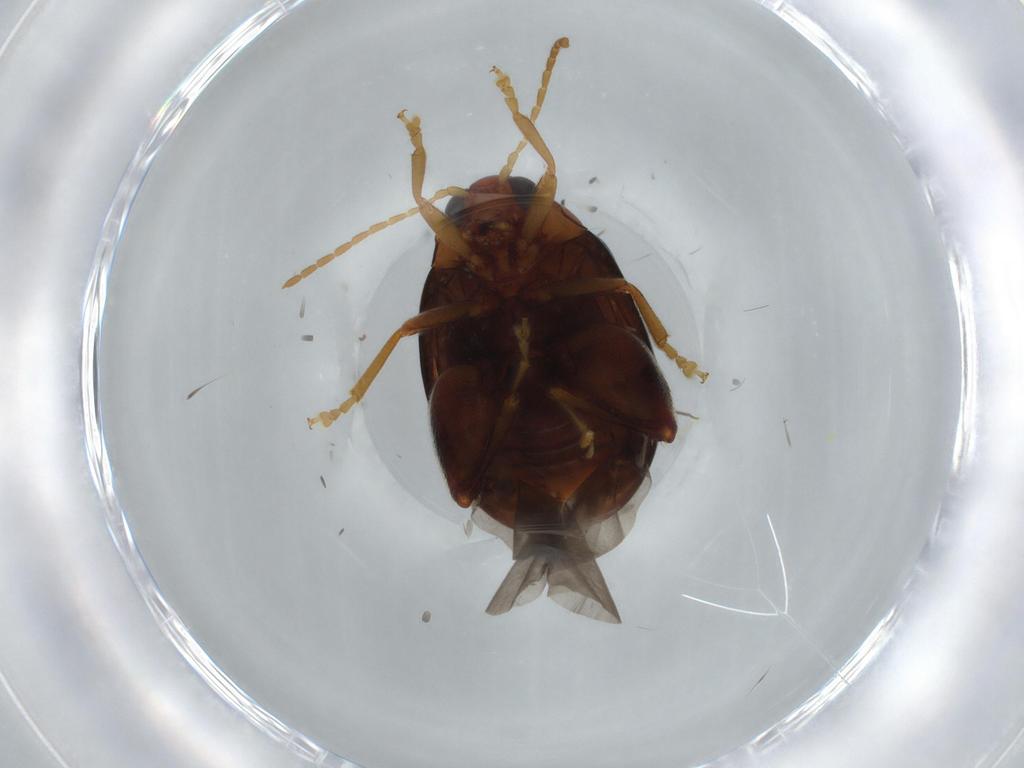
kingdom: Animalia
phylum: Arthropoda
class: Insecta
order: Coleoptera
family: Chrysomelidae
